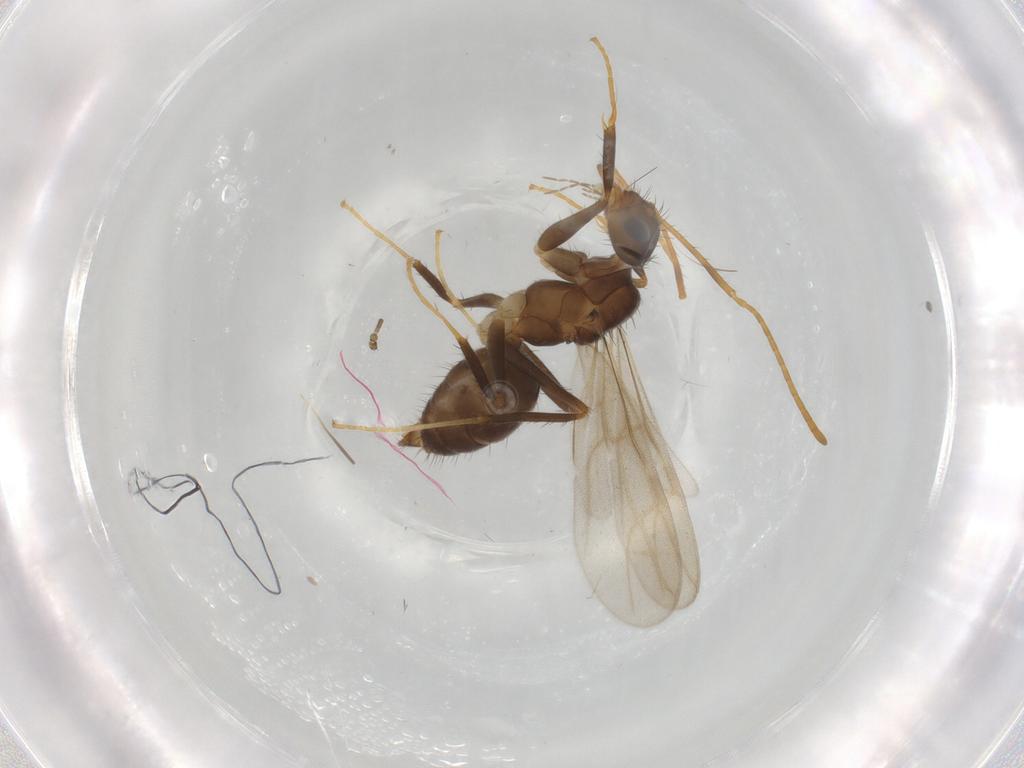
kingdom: Animalia
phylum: Arthropoda
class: Insecta
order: Hymenoptera
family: Formicidae
